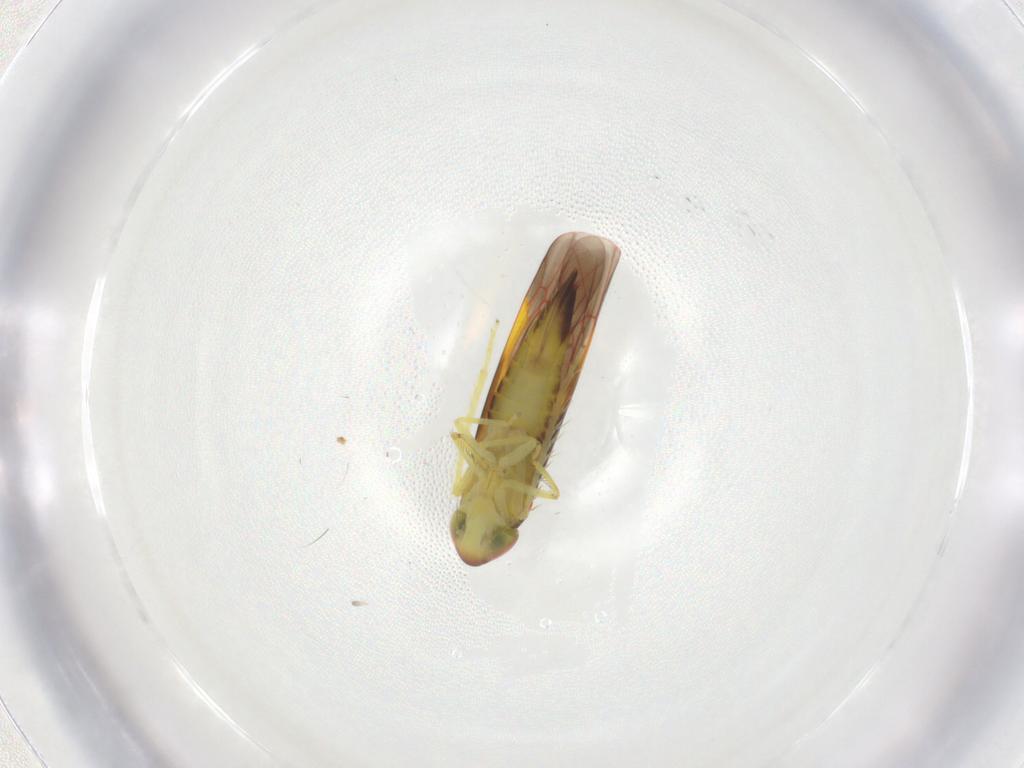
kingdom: Animalia
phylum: Arthropoda
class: Insecta
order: Hemiptera
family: Cicadellidae
